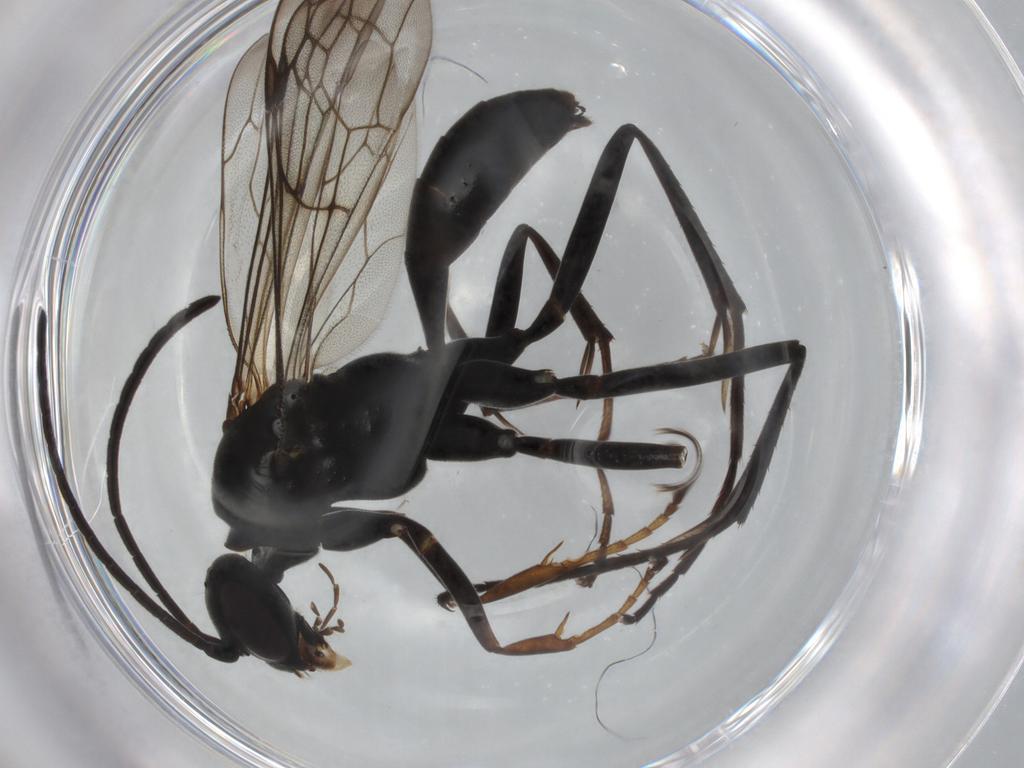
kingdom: Animalia
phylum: Arthropoda
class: Insecta
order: Hymenoptera
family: Pompilidae
